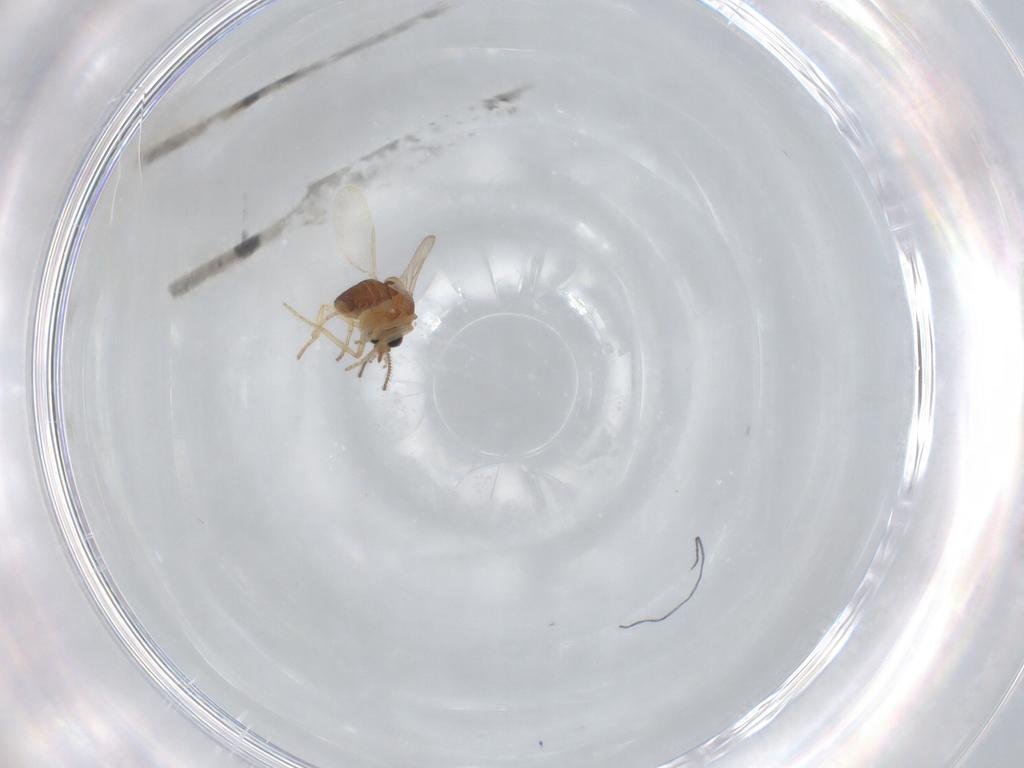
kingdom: Animalia
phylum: Arthropoda
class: Insecta
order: Diptera
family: Ceratopogonidae
